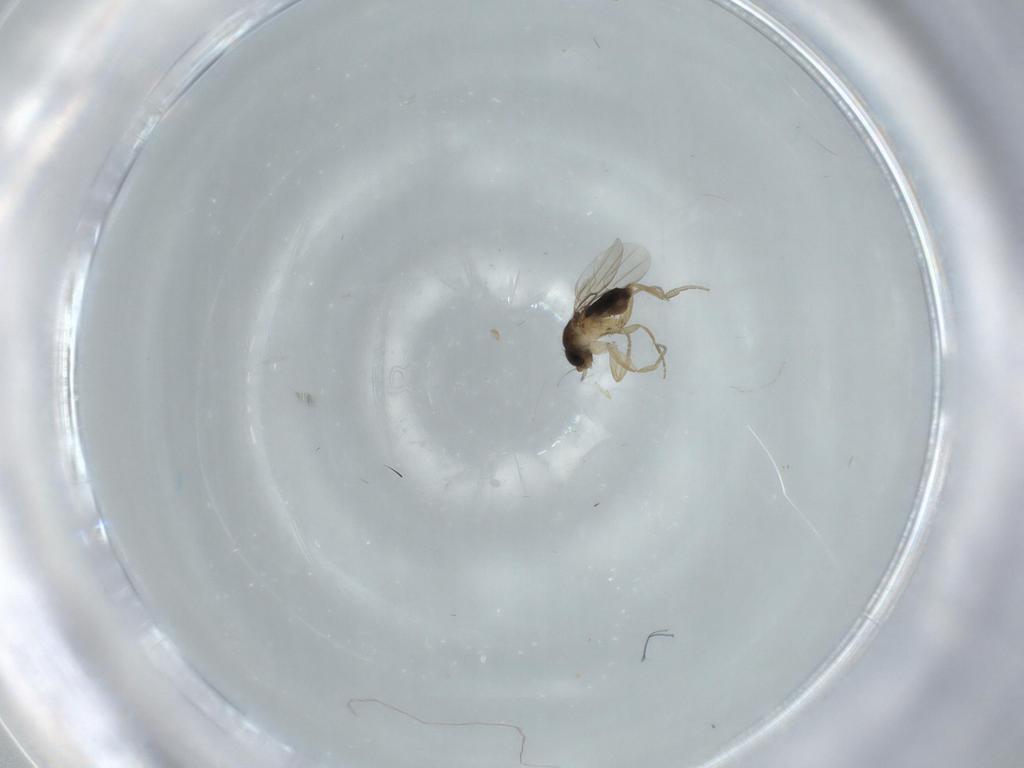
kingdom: Animalia
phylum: Arthropoda
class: Insecta
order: Diptera
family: Phoridae
